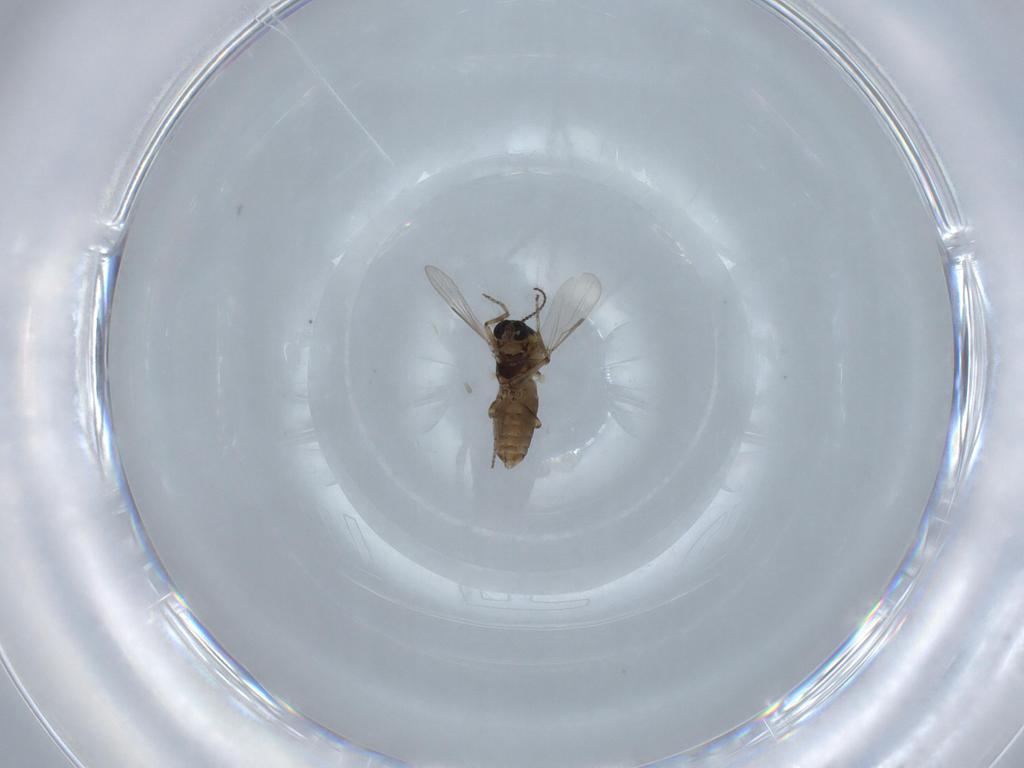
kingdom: Animalia
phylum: Arthropoda
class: Insecta
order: Diptera
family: Ceratopogonidae
